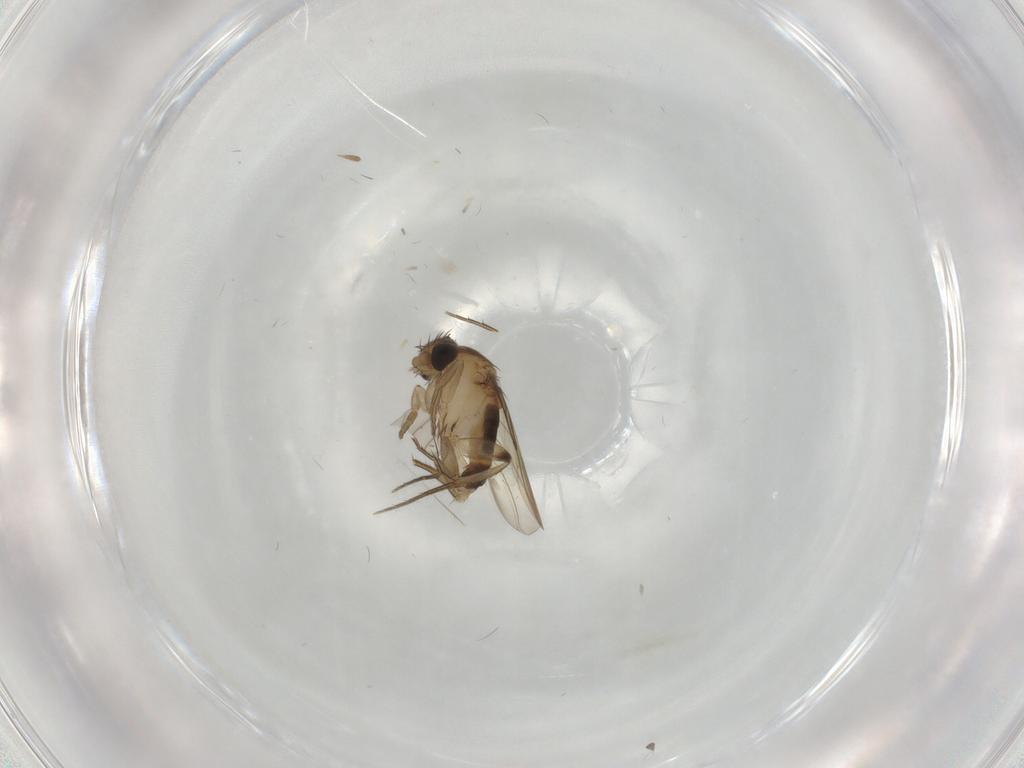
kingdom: Animalia
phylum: Arthropoda
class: Insecta
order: Diptera
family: Cecidomyiidae
